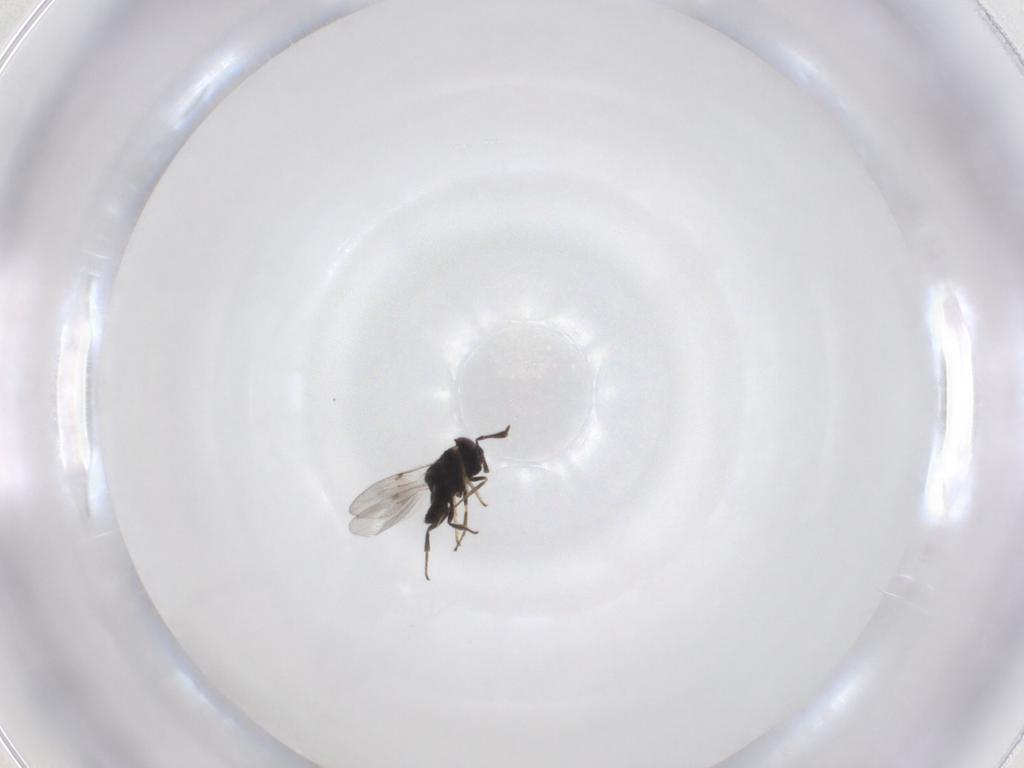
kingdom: Animalia
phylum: Arthropoda
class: Insecta
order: Hymenoptera
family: Encyrtidae
